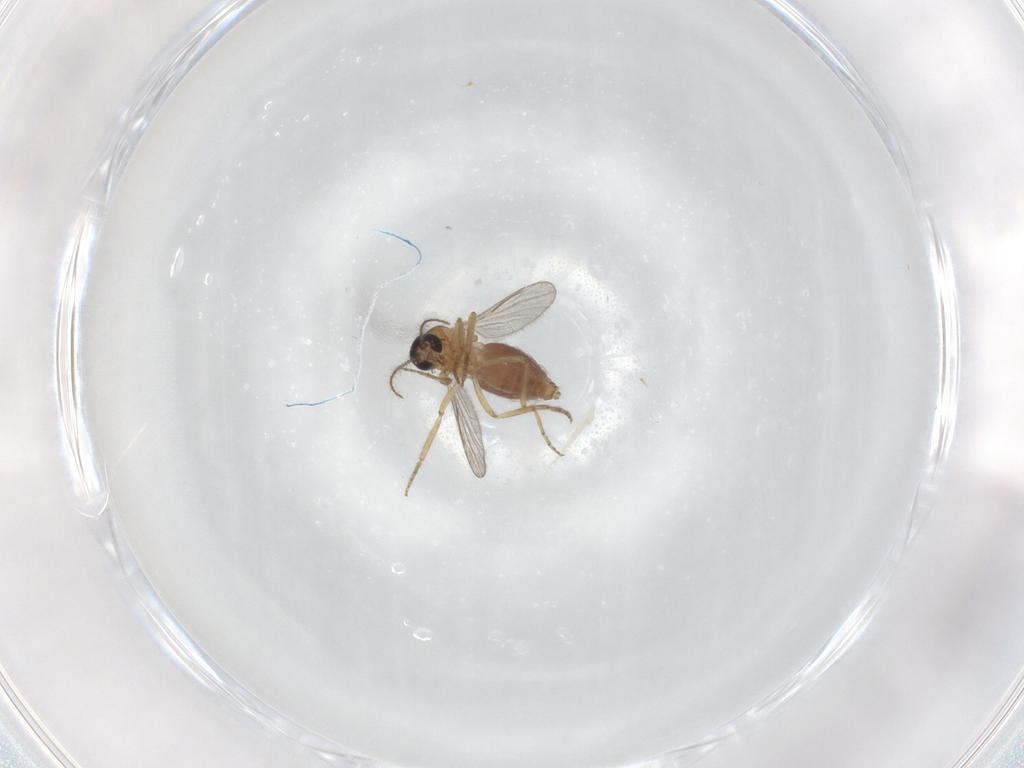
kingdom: Animalia
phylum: Arthropoda
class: Insecta
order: Diptera
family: Ceratopogonidae
